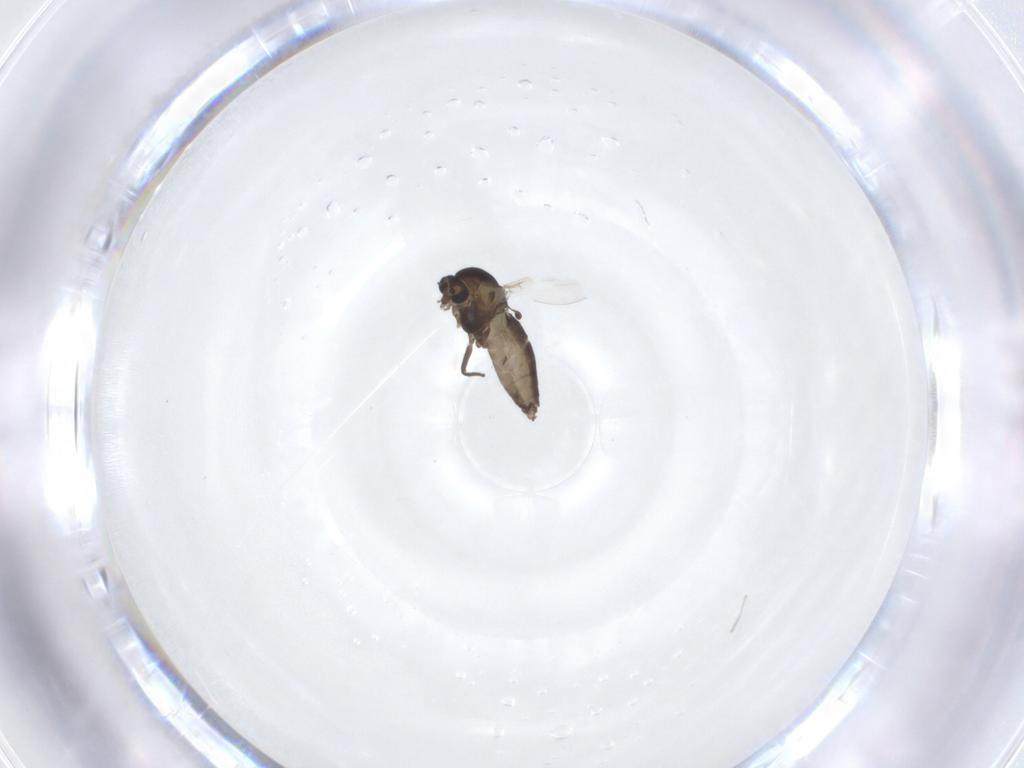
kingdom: Animalia
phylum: Arthropoda
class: Insecta
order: Diptera
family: Chironomidae
